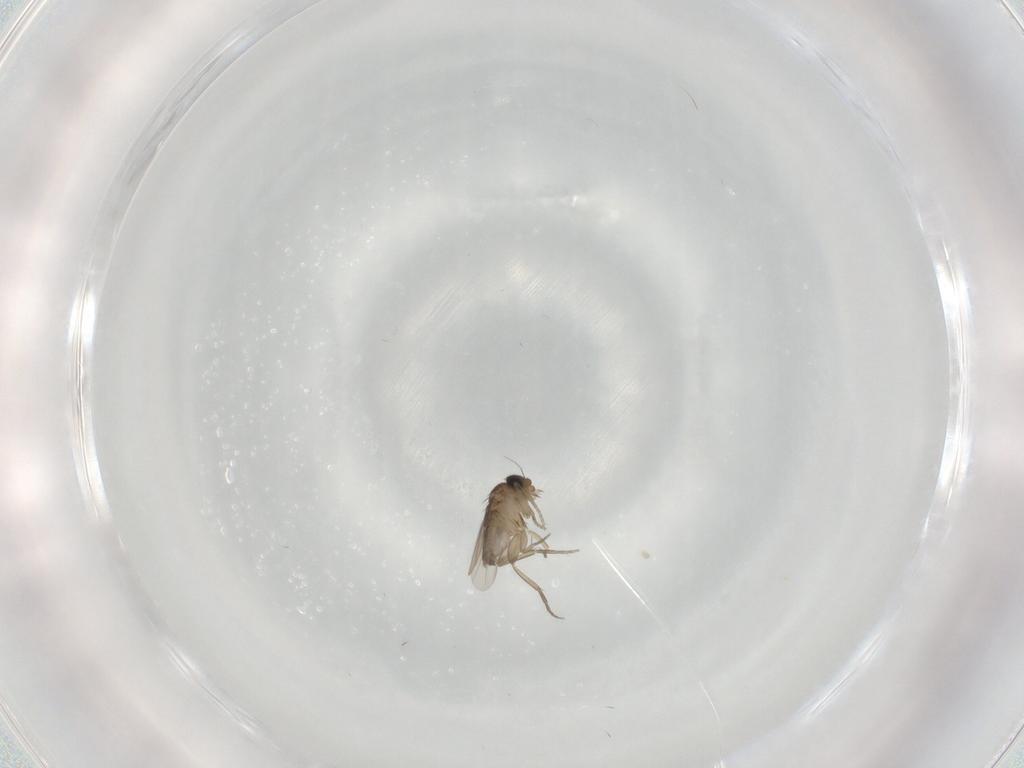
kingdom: Animalia
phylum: Arthropoda
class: Insecta
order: Diptera
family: Phoridae
